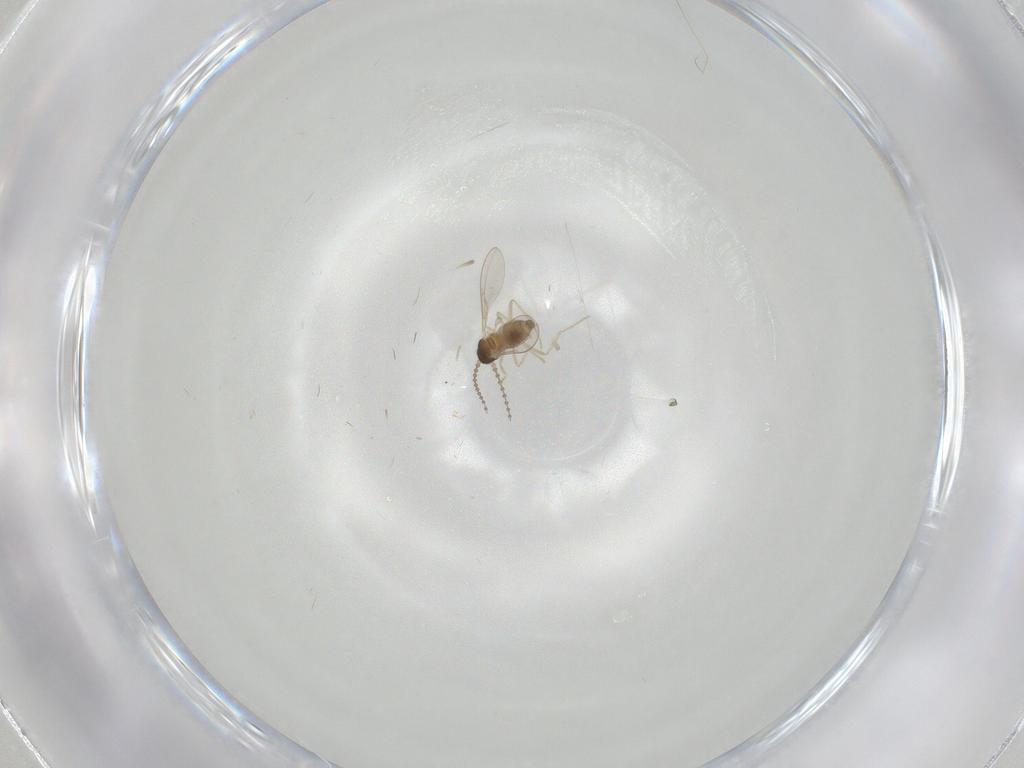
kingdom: Animalia
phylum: Arthropoda
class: Insecta
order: Diptera
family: Cecidomyiidae
